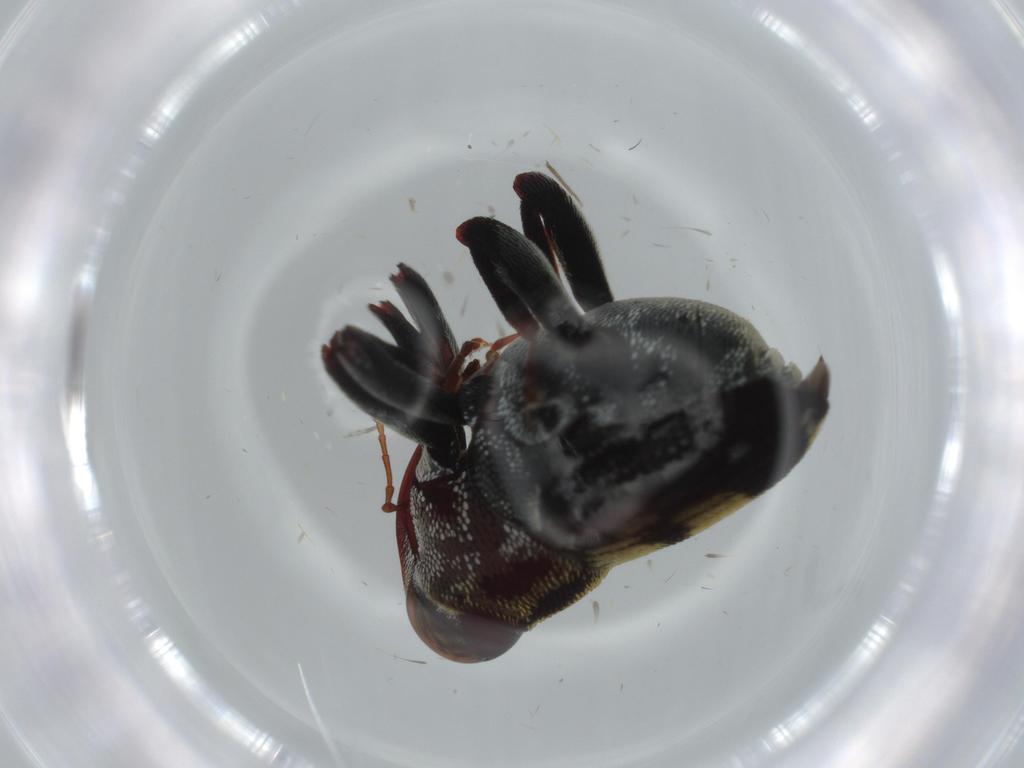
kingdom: Animalia
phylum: Arthropoda
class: Insecta
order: Coleoptera
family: Curculionidae
